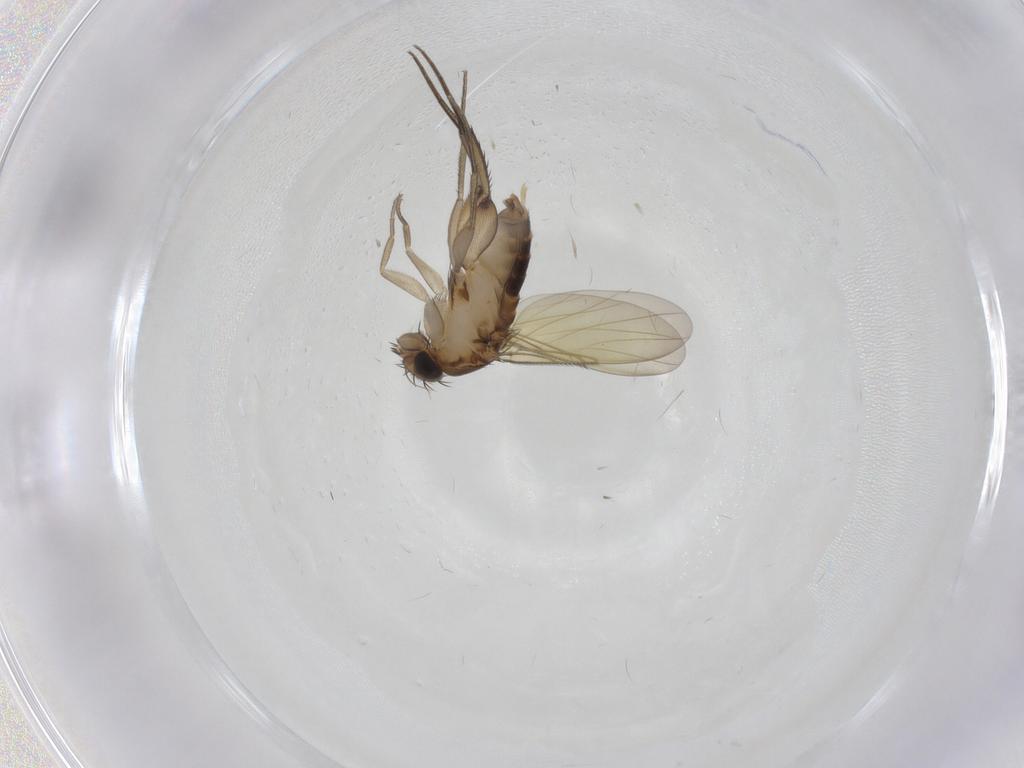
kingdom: Animalia
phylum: Arthropoda
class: Insecta
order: Diptera
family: Phoridae
